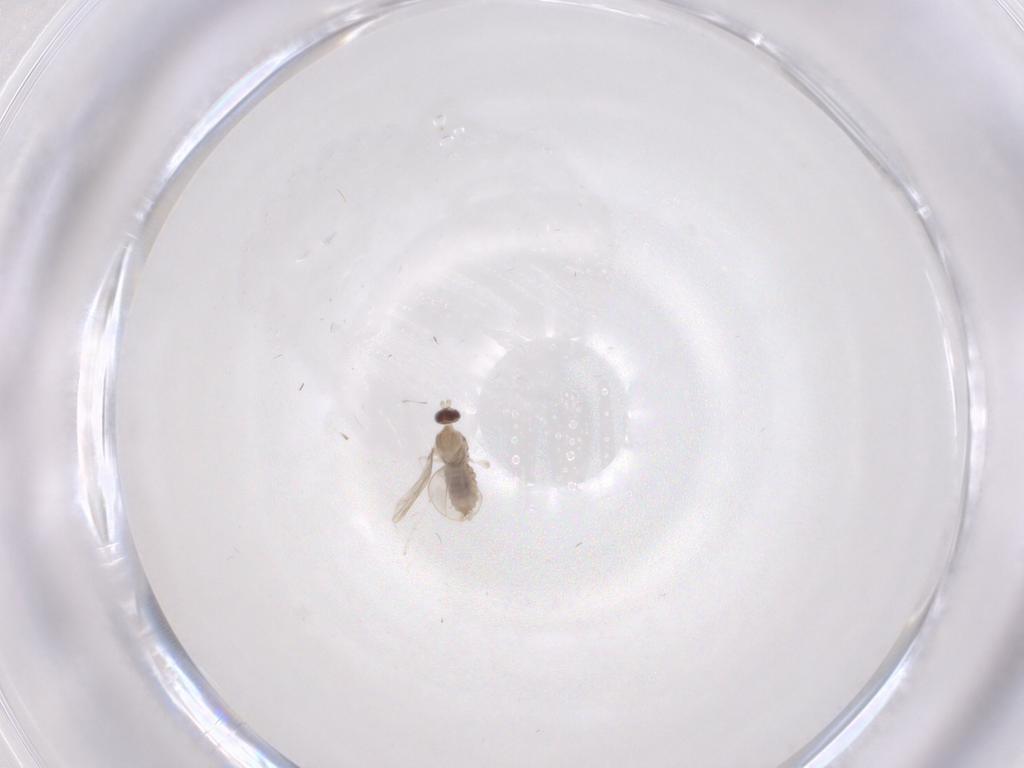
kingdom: Animalia
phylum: Arthropoda
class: Insecta
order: Diptera
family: Cecidomyiidae
